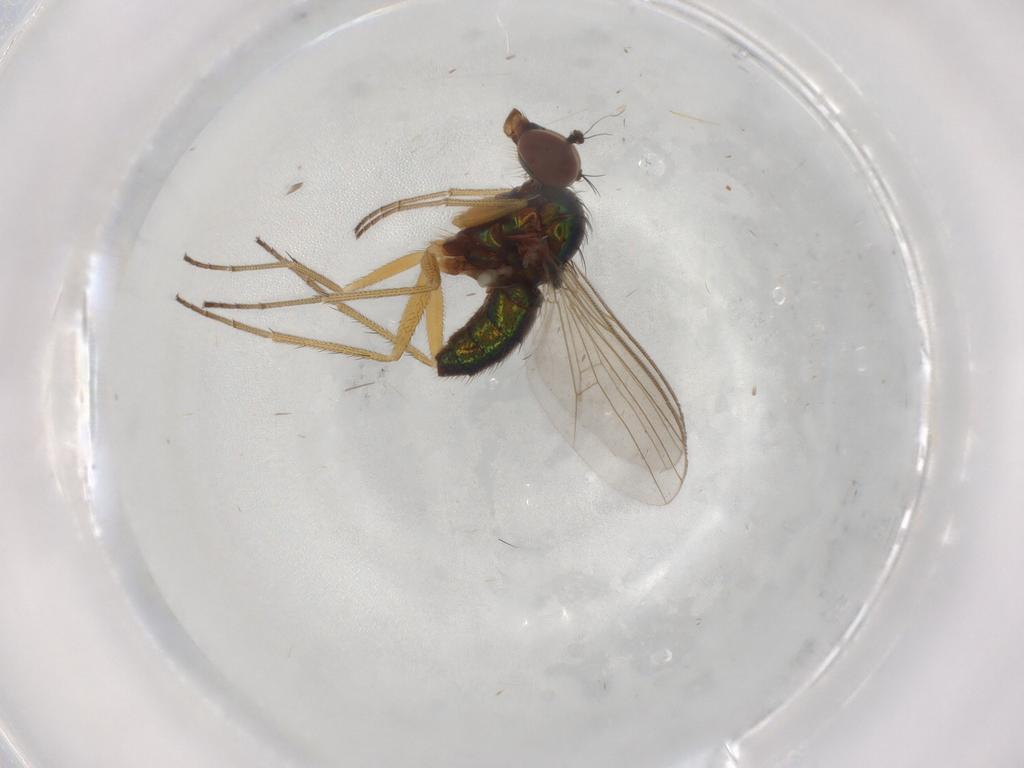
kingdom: Animalia
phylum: Arthropoda
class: Insecta
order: Diptera
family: Dolichopodidae
